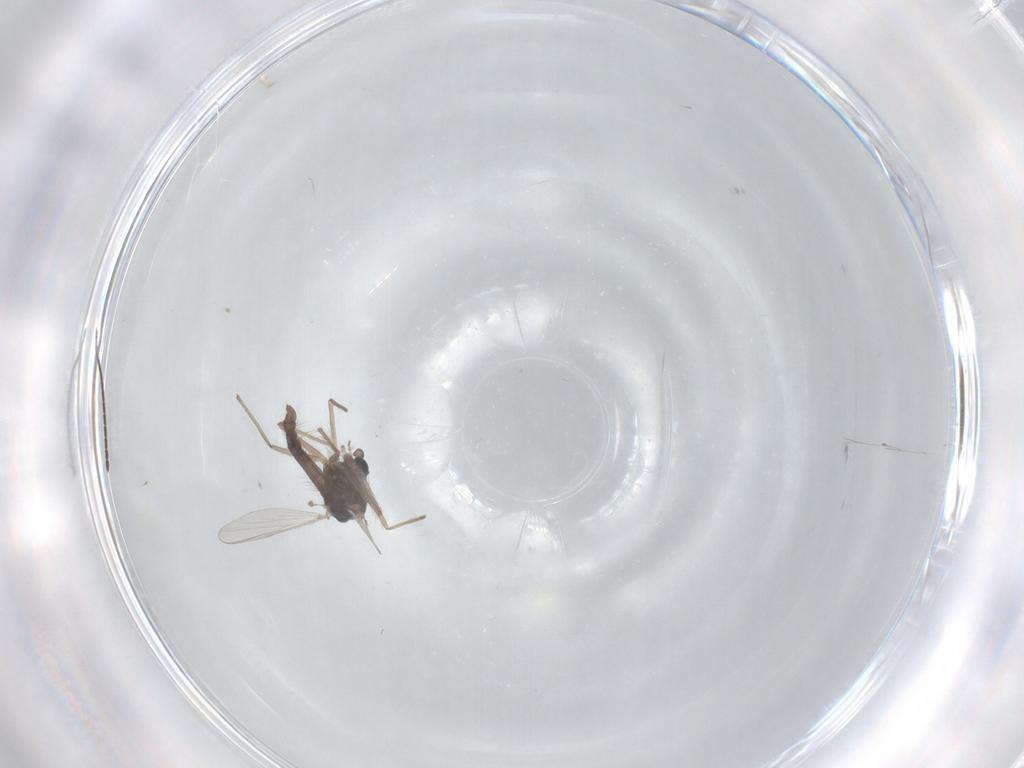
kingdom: Animalia
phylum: Arthropoda
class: Insecta
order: Diptera
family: Chironomidae
